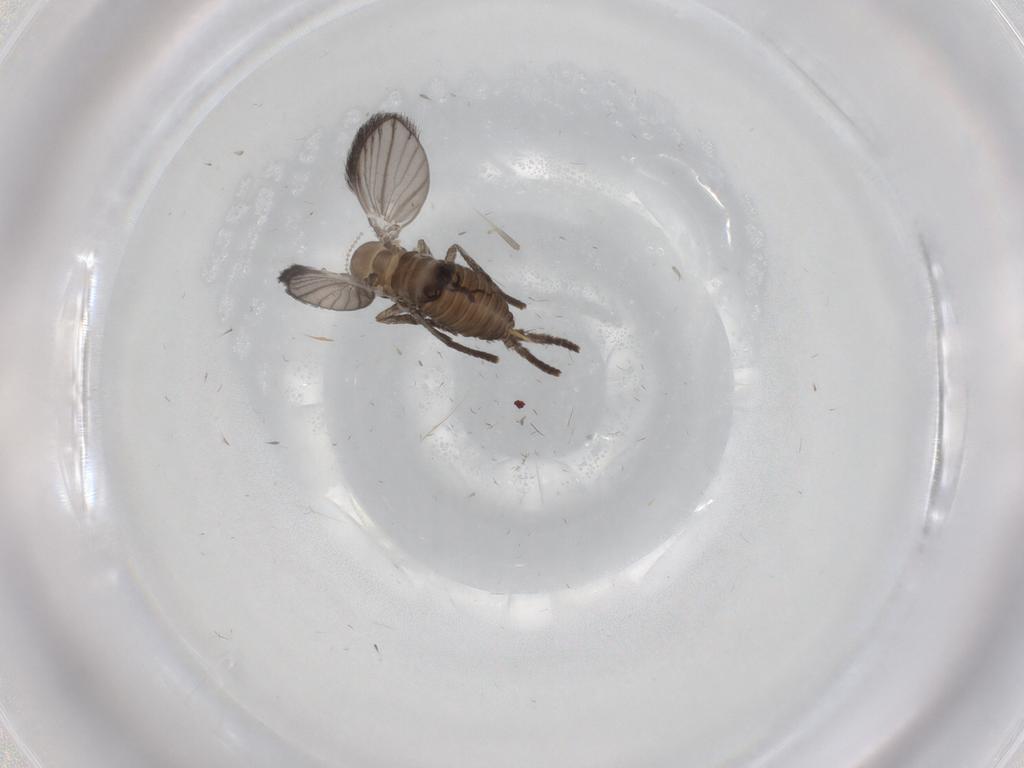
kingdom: Animalia
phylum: Arthropoda
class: Insecta
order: Diptera
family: Psychodidae
